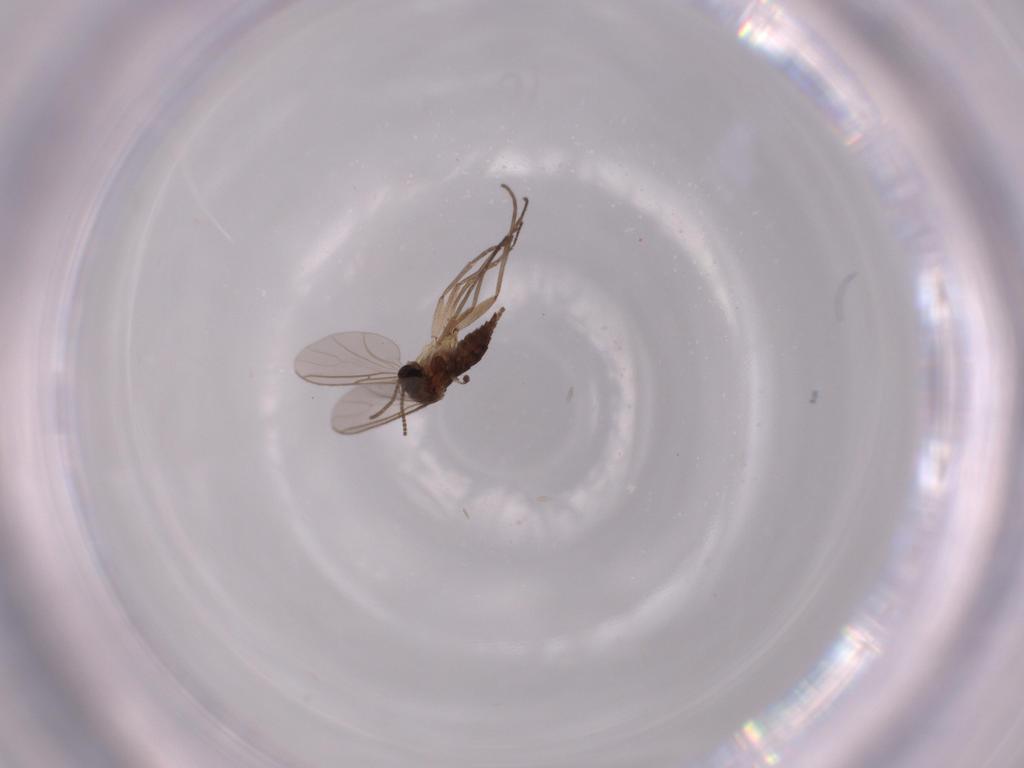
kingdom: Animalia
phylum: Arthropoda
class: Insecta
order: Diptera
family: Sciaridae
